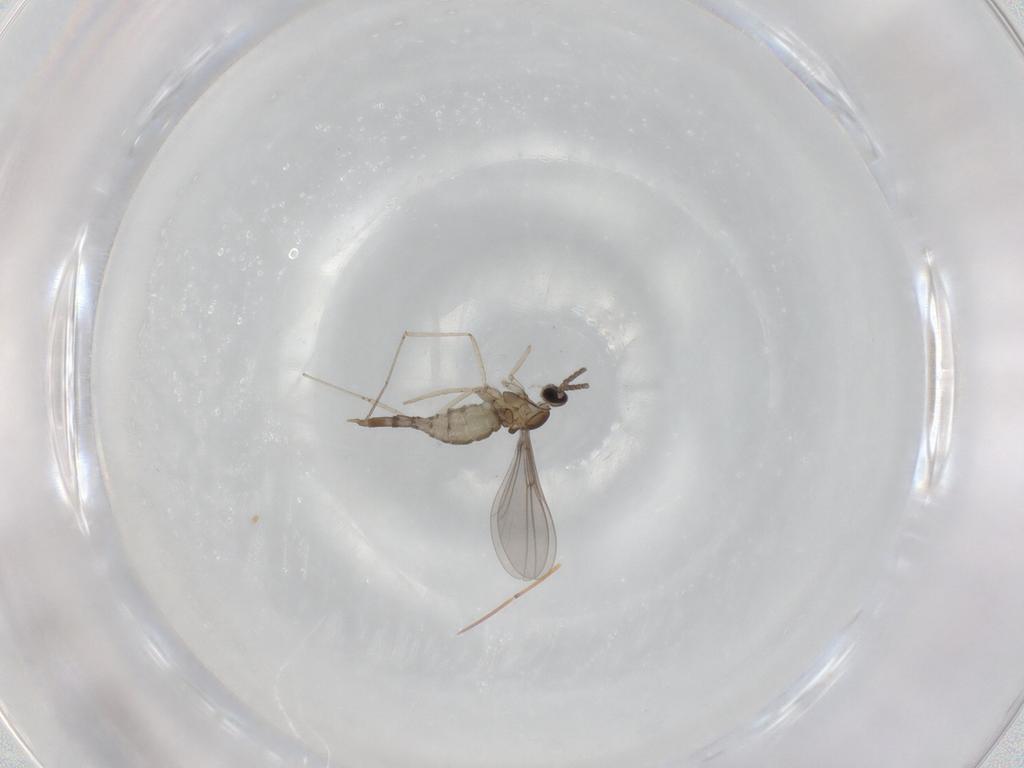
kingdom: Animalia
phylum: Arthropoda
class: Insecta
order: Diptera
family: Cecidomyiidae
